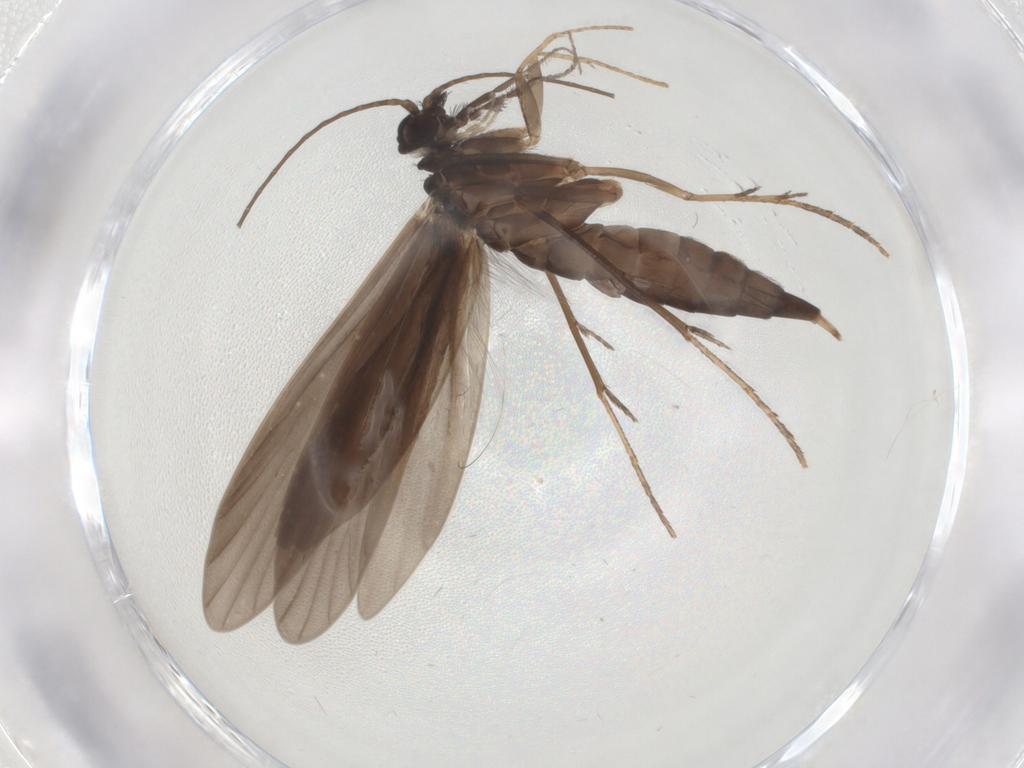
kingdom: Animalia
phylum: Arthropoda
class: Insecta
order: Trichoptera
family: Xiphocentronidae
